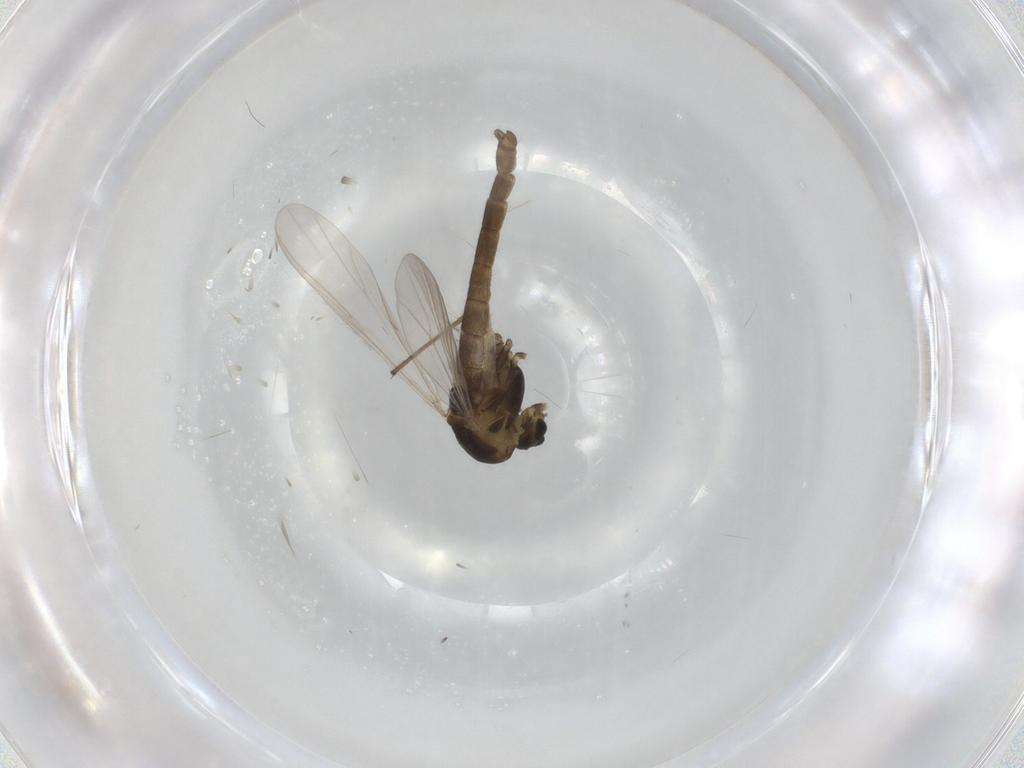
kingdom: Animalia
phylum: Arthropoda
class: Insecta
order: Diptera
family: Chironomidae
